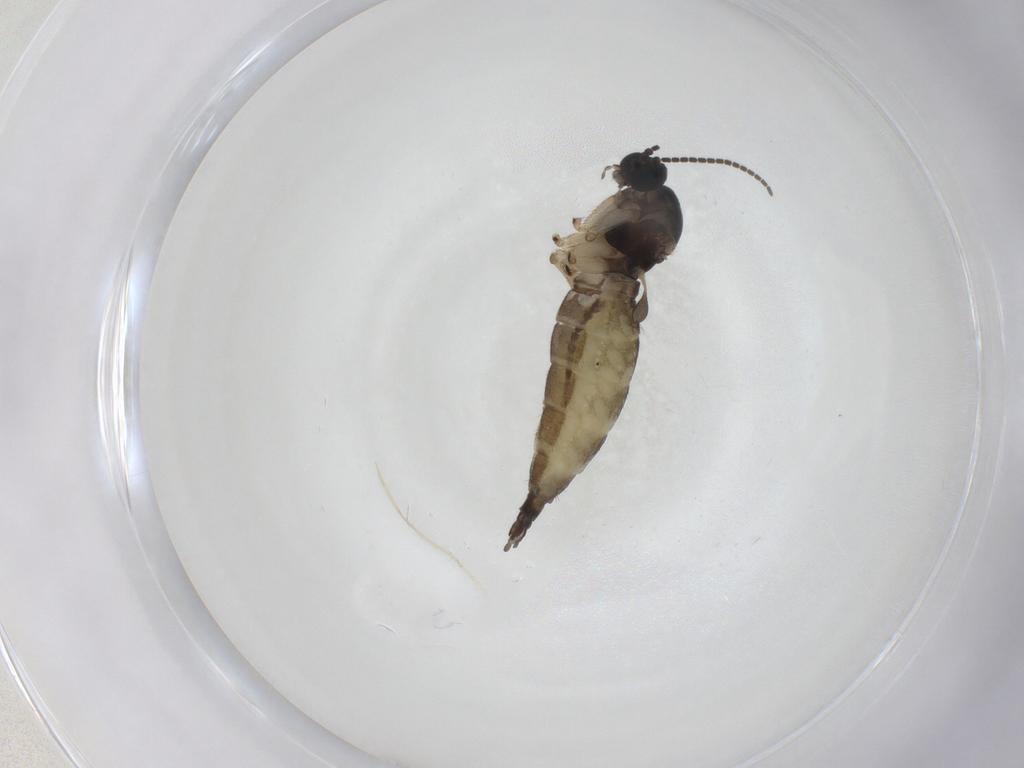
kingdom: Animalia
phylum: Arthropoda
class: Insecta
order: Diptera
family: Sciaridae
